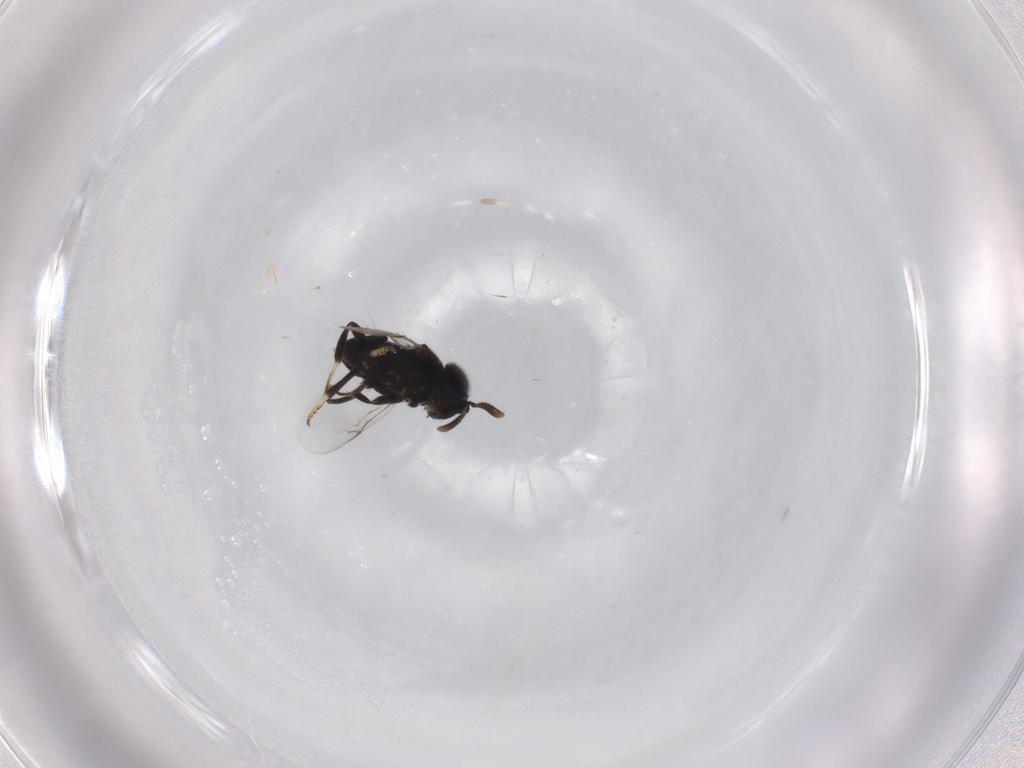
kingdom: Animalia
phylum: Arthropoda
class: Insecta
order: Hymenoptera
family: Encyrtidae
